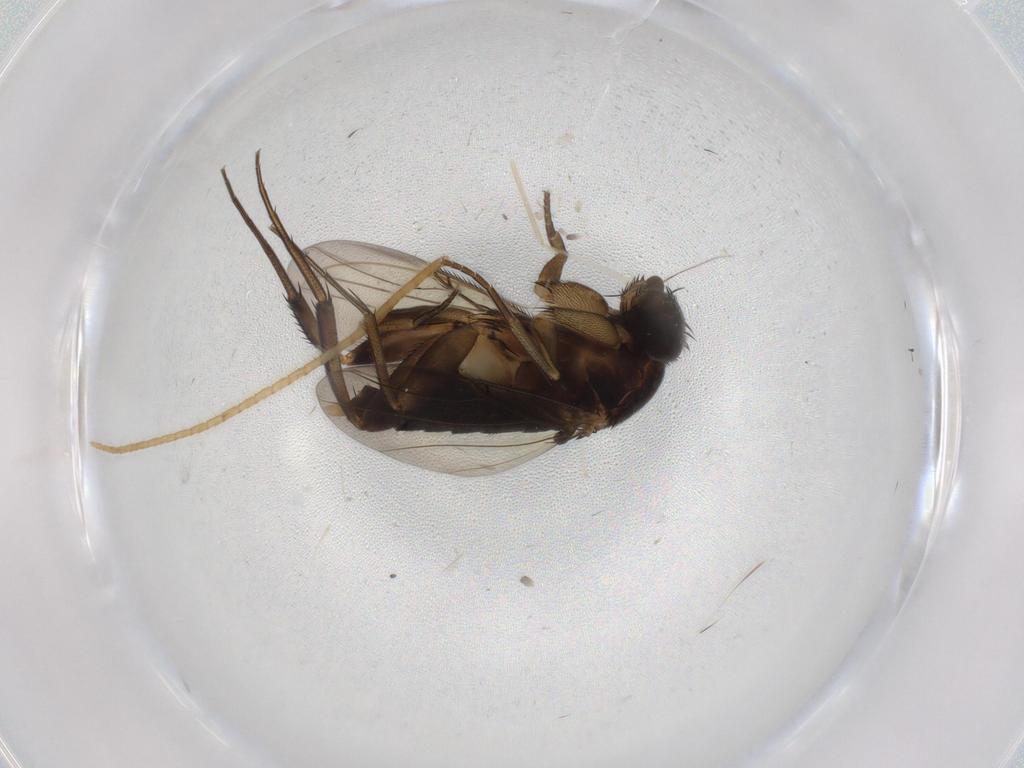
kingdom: Animalia
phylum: Arthropoda
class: Insecta
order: Diptera
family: Phoridae
